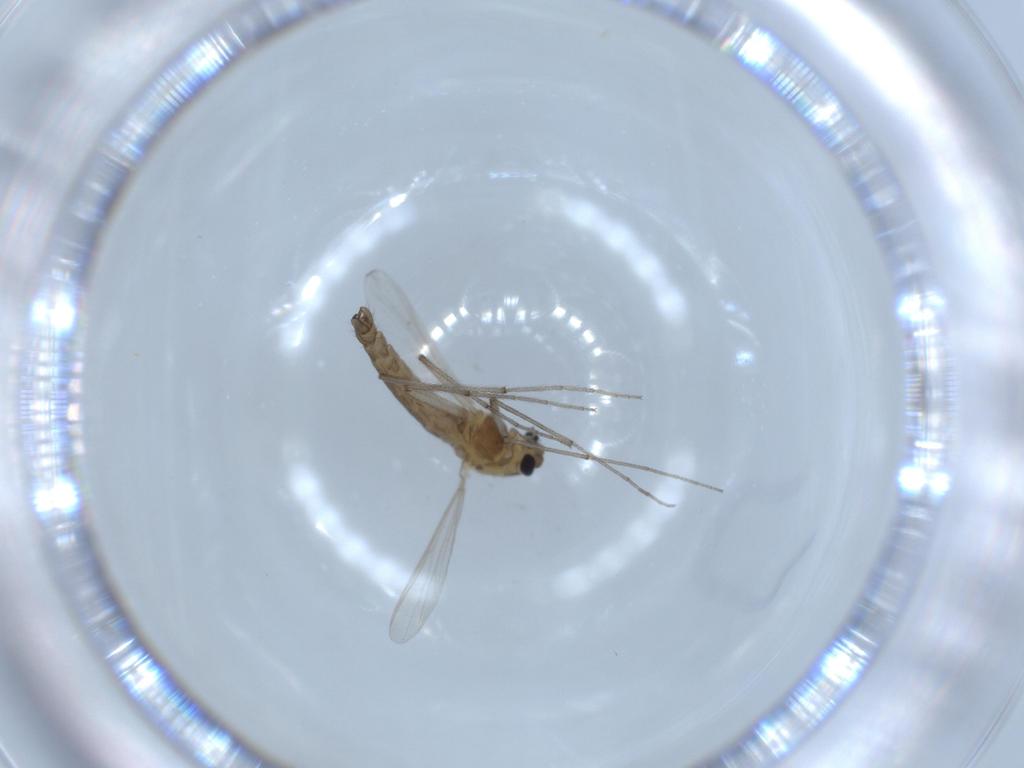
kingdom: Animalia
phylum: Arthropoda
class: Insecta
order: Diptera
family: Chironomidae
